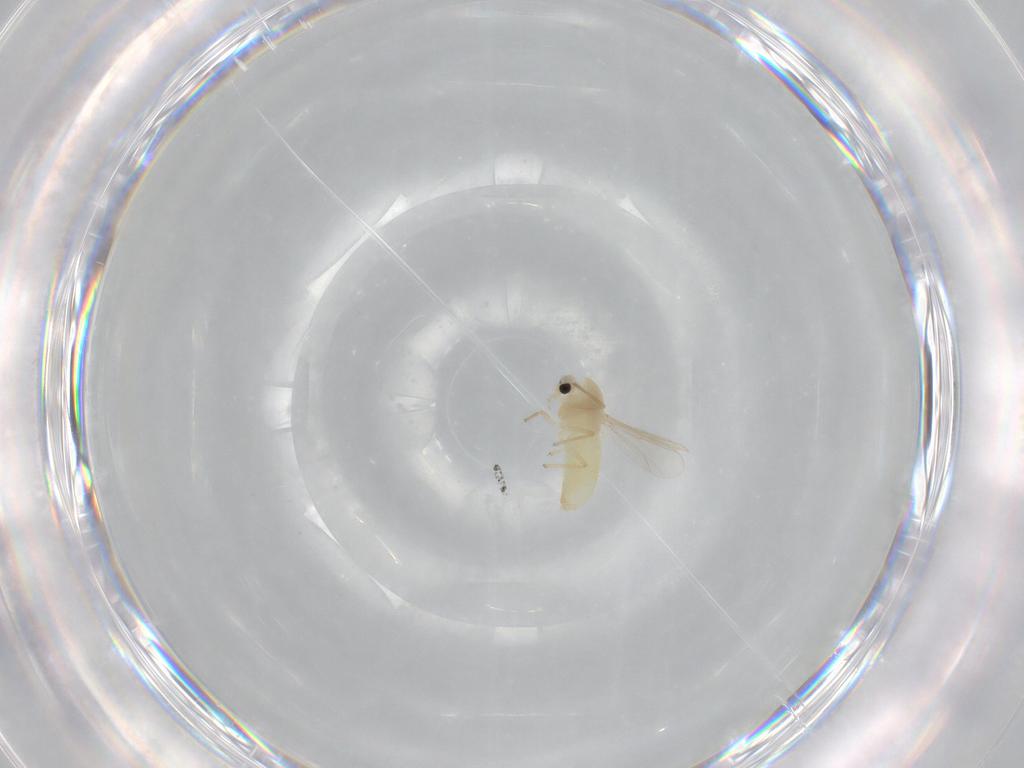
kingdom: Animalia
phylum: Arthropoda
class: Insecta
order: Diptera
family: Chironomidae
